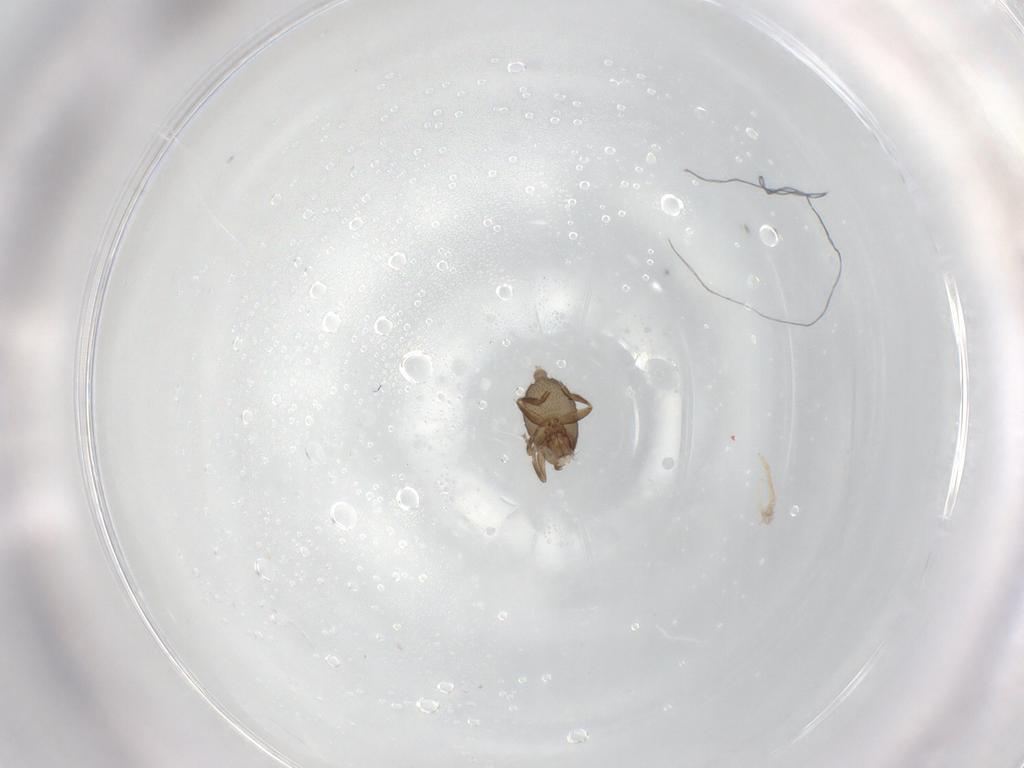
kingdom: Animalia
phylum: Arthropoda
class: Insecta
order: Diptera
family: Phoridae
